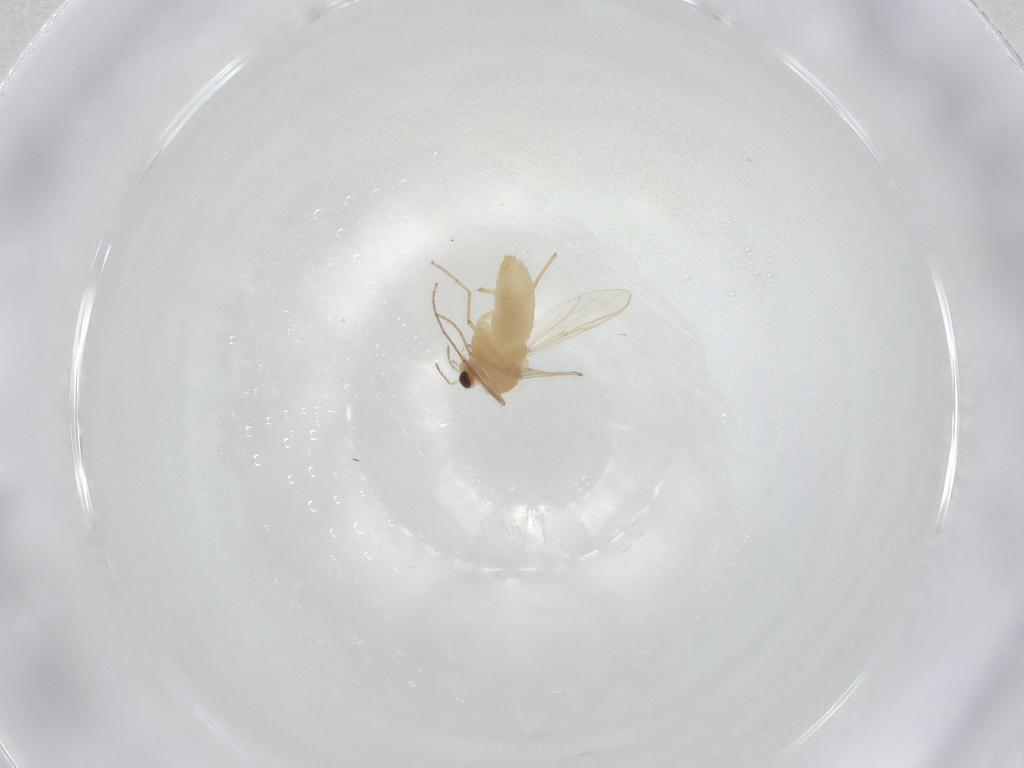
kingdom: Animalia
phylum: Arthropoda
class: Insecta
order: Diptera
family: Chironomidae
